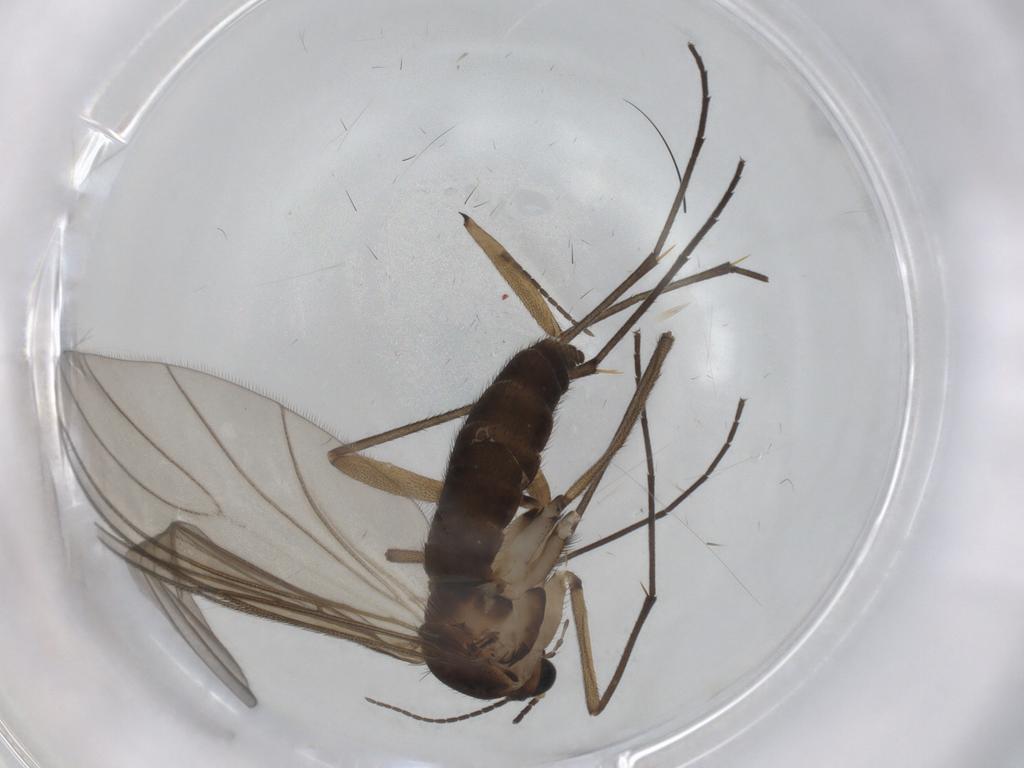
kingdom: Animalia
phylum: Arthropoda
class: Insecta
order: Diptera
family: Sciaridae
